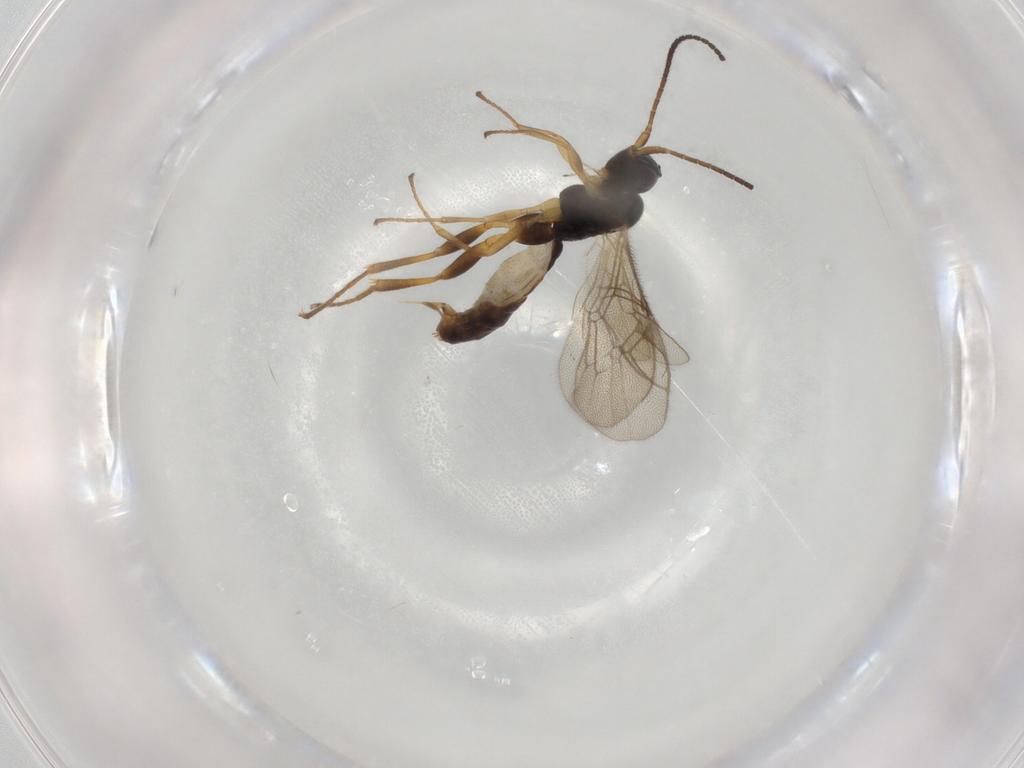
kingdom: Animalia
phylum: Arthropoda
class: Insecta
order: Hymenoptera
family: Ichneumonidae
